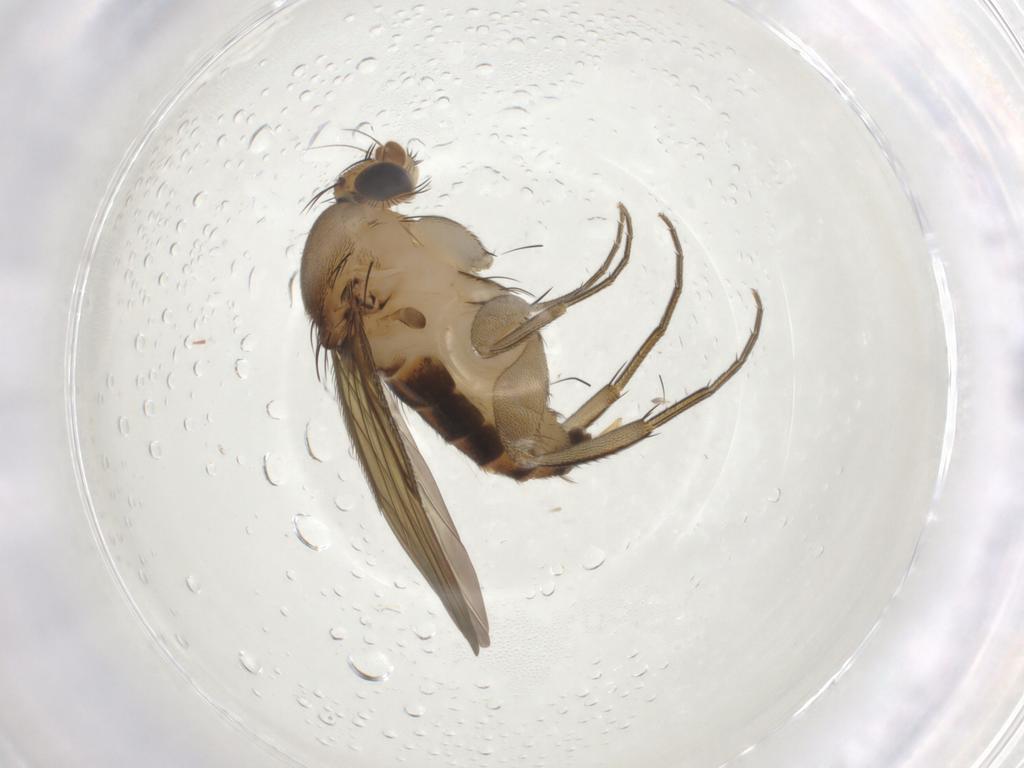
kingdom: Animalia
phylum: Arthropoda
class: Insecta
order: Diptera
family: Phoridae
